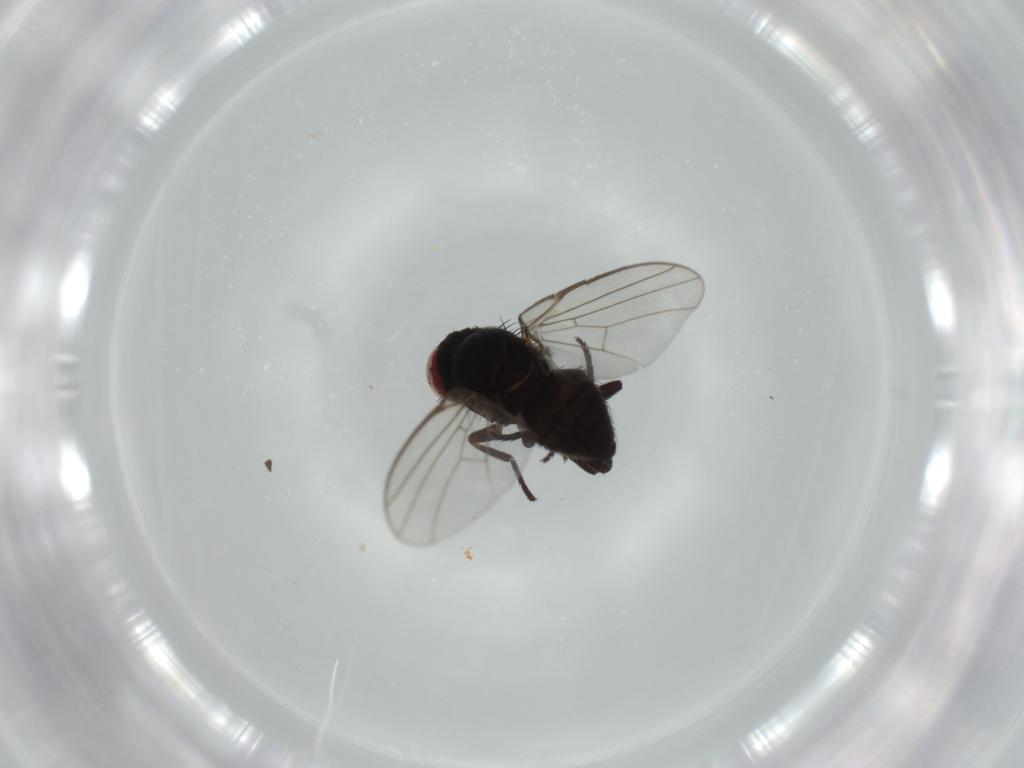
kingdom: Animalia
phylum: Arthropoda
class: Insecta
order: Diptera
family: Agromyzidae
